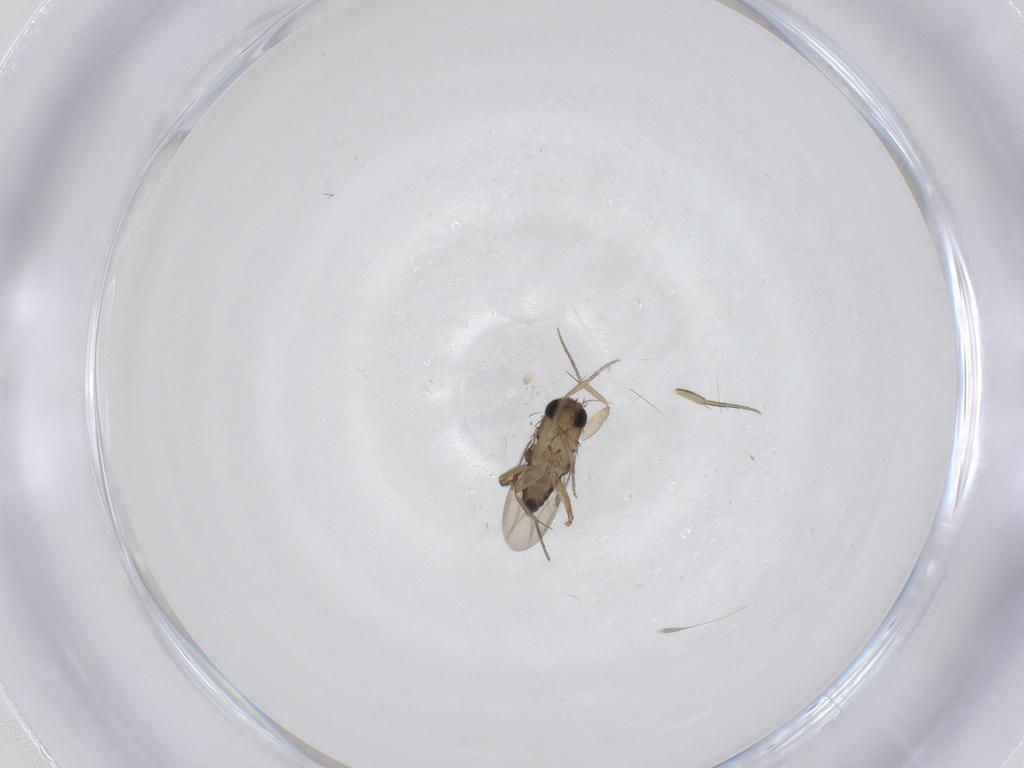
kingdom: Animalia
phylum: Arthropoda
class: Insecta
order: Diptera
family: Phoridae
